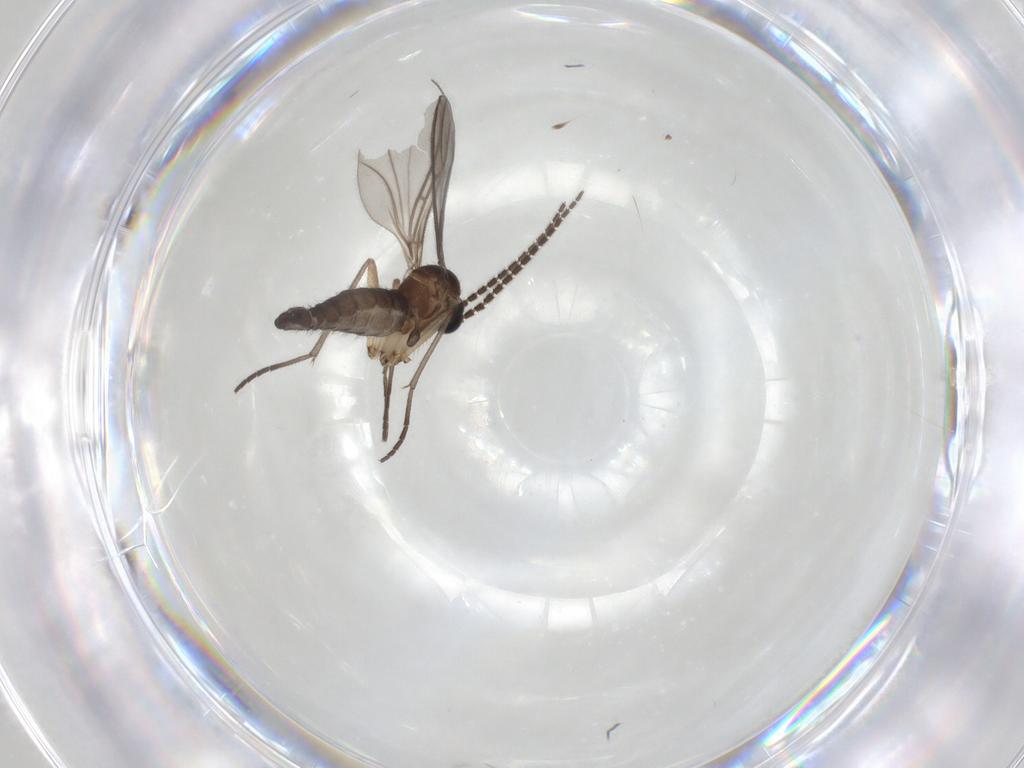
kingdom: Animalia
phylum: Arthropoda
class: Insecta
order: Diptera
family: Sciaridae
